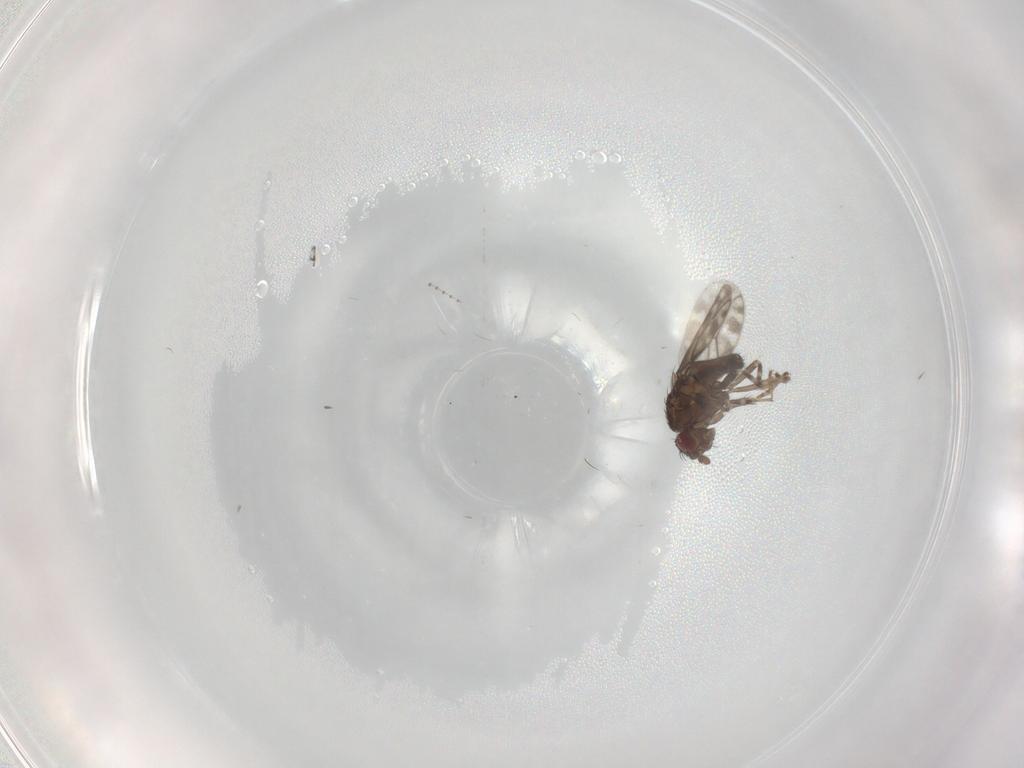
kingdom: Animalia
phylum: Arthropoda
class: Insecta
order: Diptera
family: Sphaeroceridae
